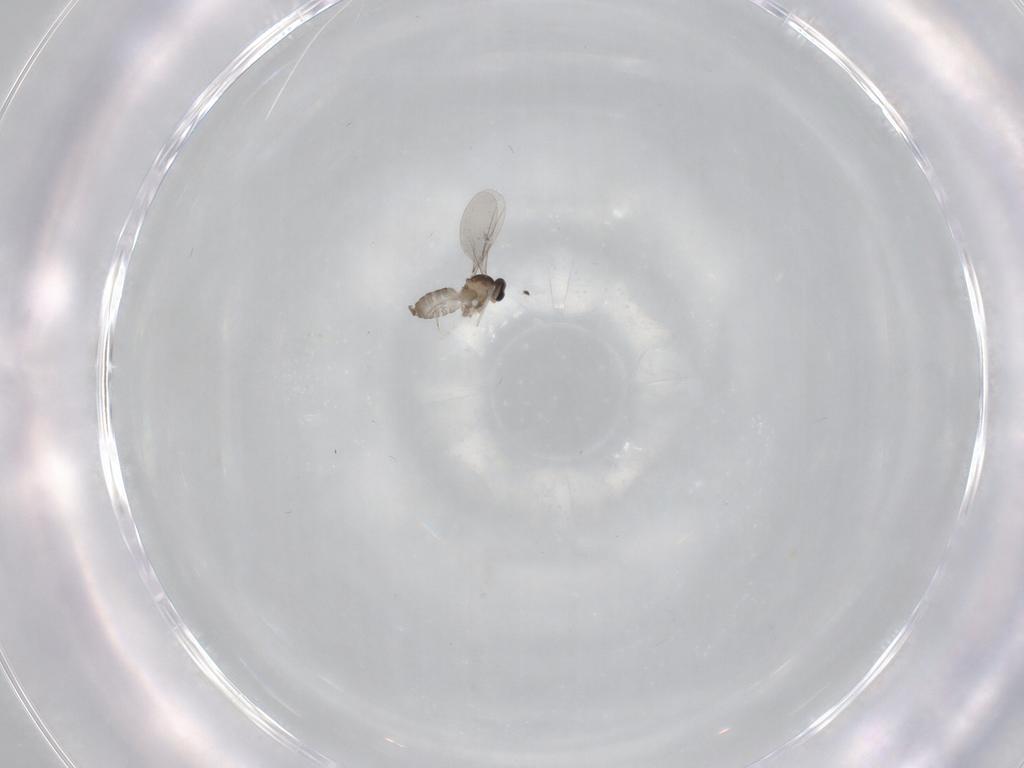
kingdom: Animalia
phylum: Arthropoda
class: Insecta
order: Diptera
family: Cecidomyiidae
